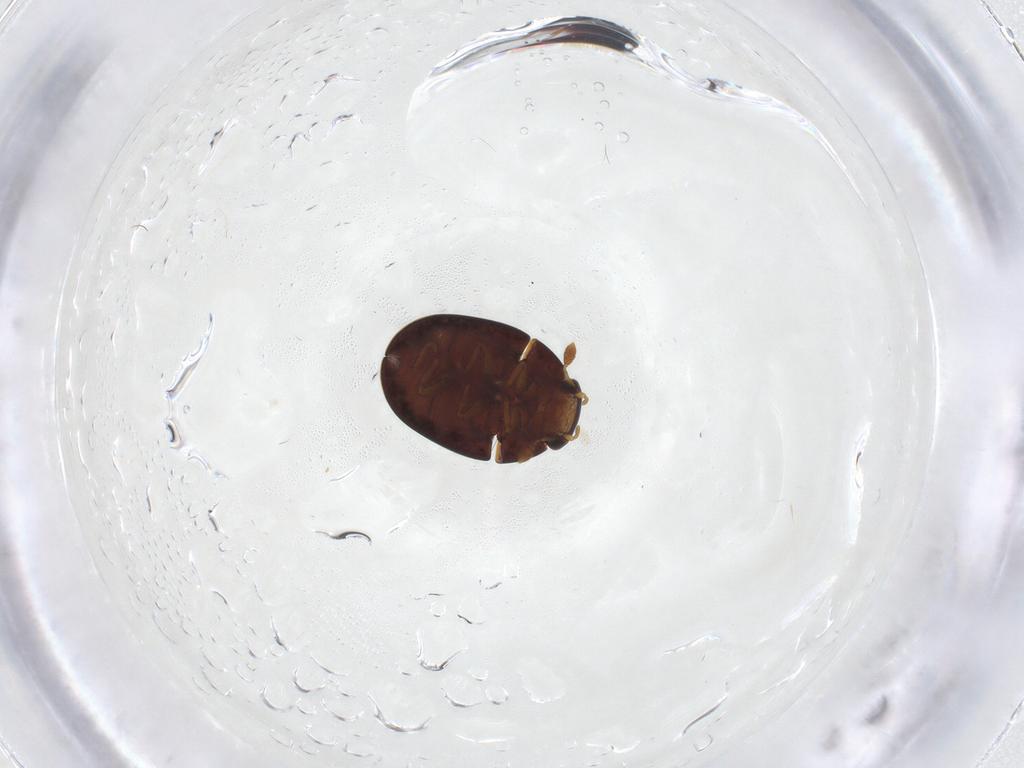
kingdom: Animalia
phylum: Arthropoda
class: Insecta
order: Coleoptera
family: Hydrophilidae
